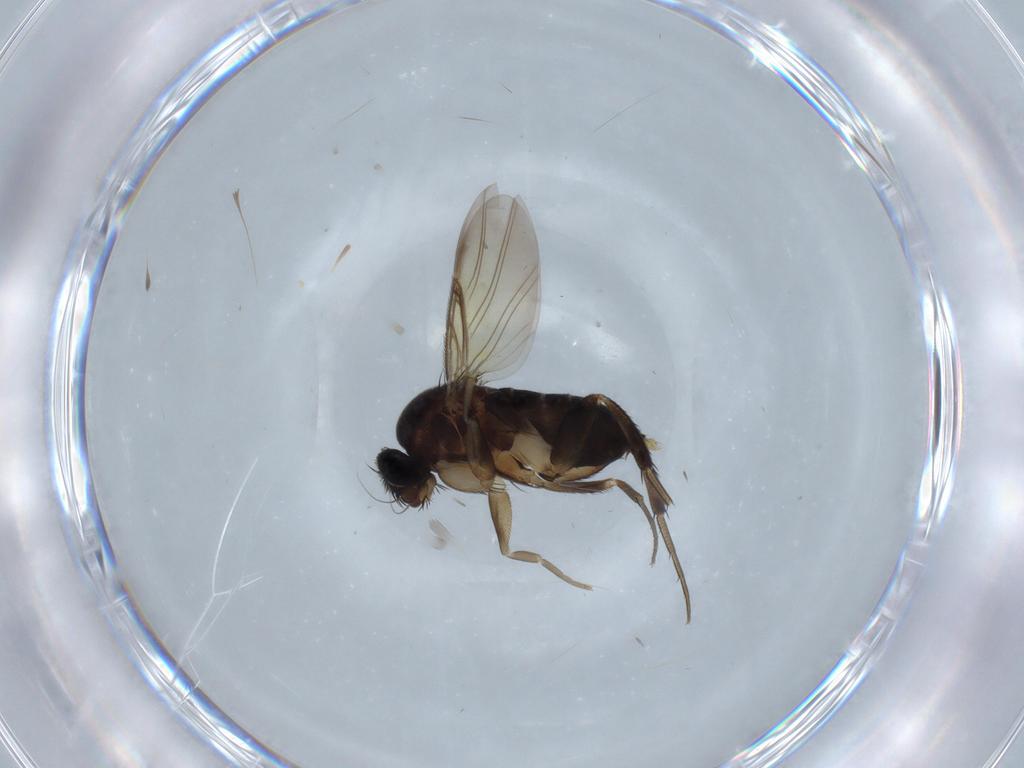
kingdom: Animalia
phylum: Arthropoda
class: Insecta
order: Diptera
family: Phoridae
